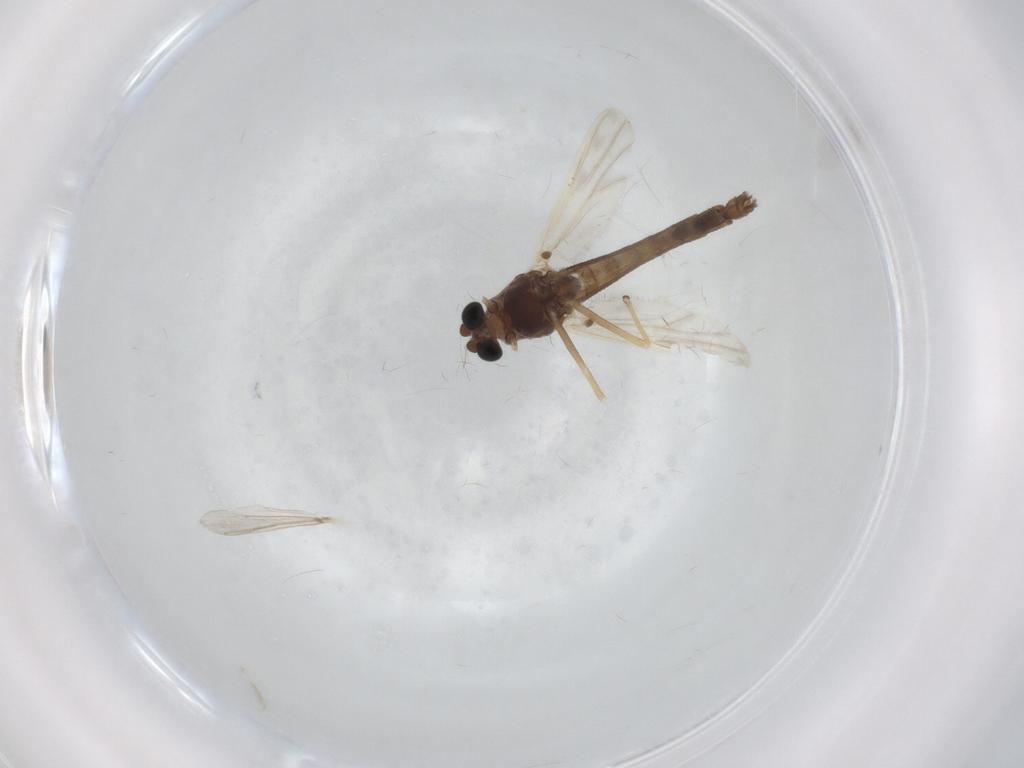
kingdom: Animalia
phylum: Arthropoda
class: Insecta
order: Diptera
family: Chironomidae
